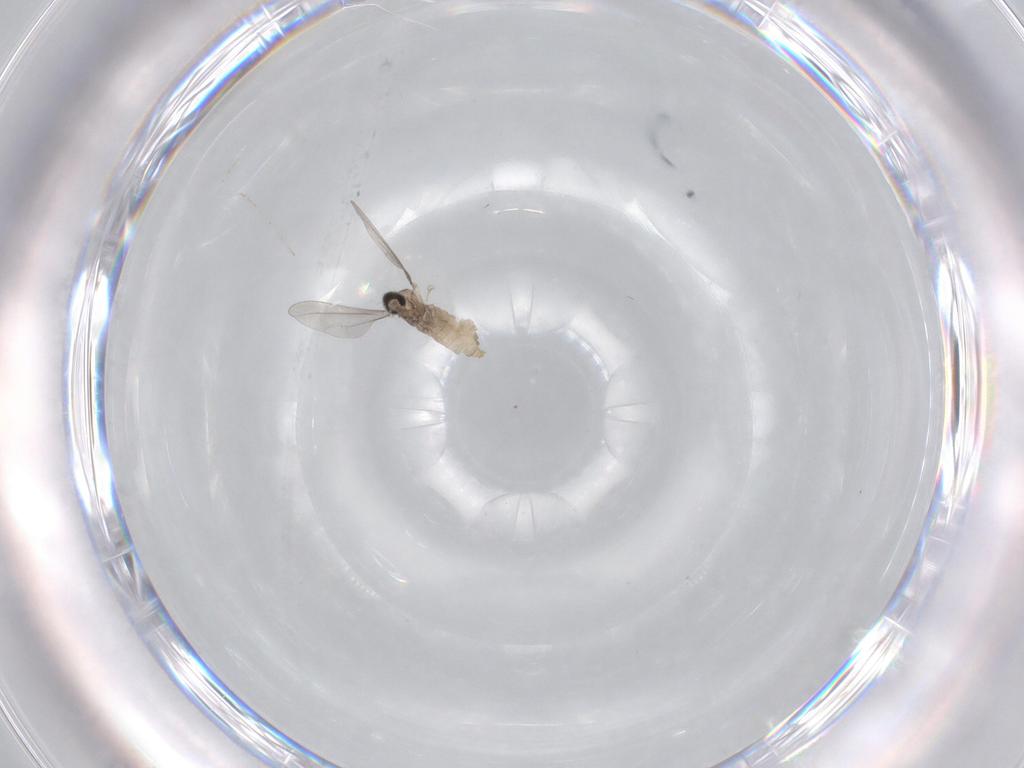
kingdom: Animalia
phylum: Arthropoda
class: Insecta
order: Diptera
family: Cecidomyiidae
